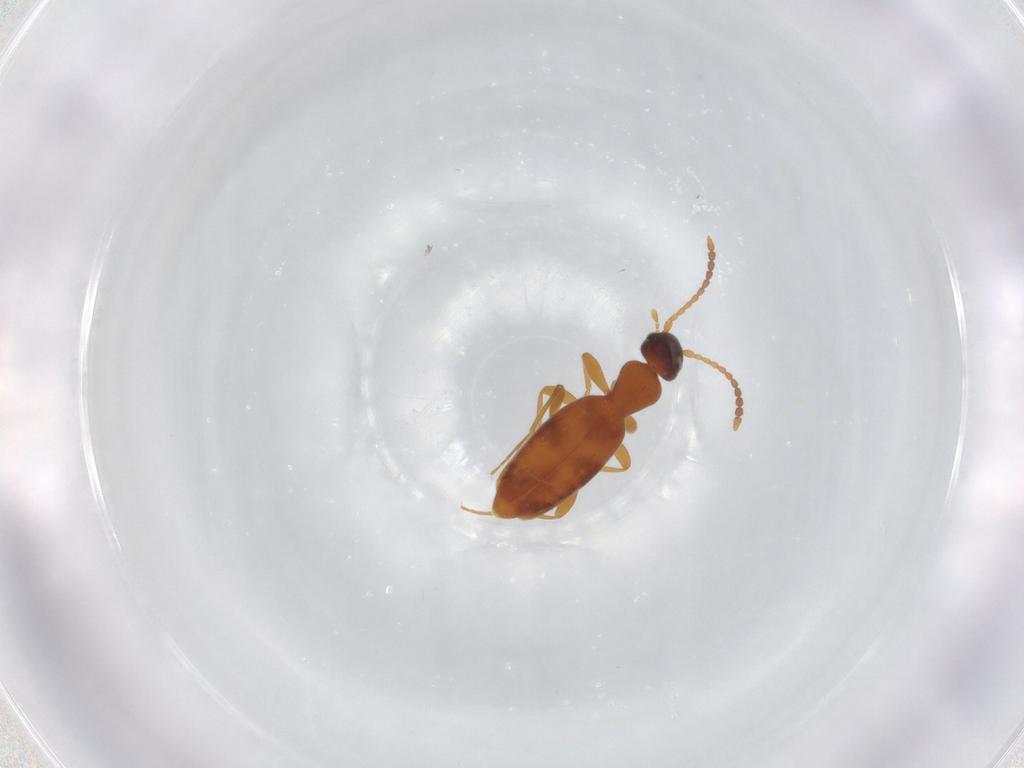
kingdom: Animalia
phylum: Arthropoda
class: Insecta
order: Coleoptera
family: Anthicidae
